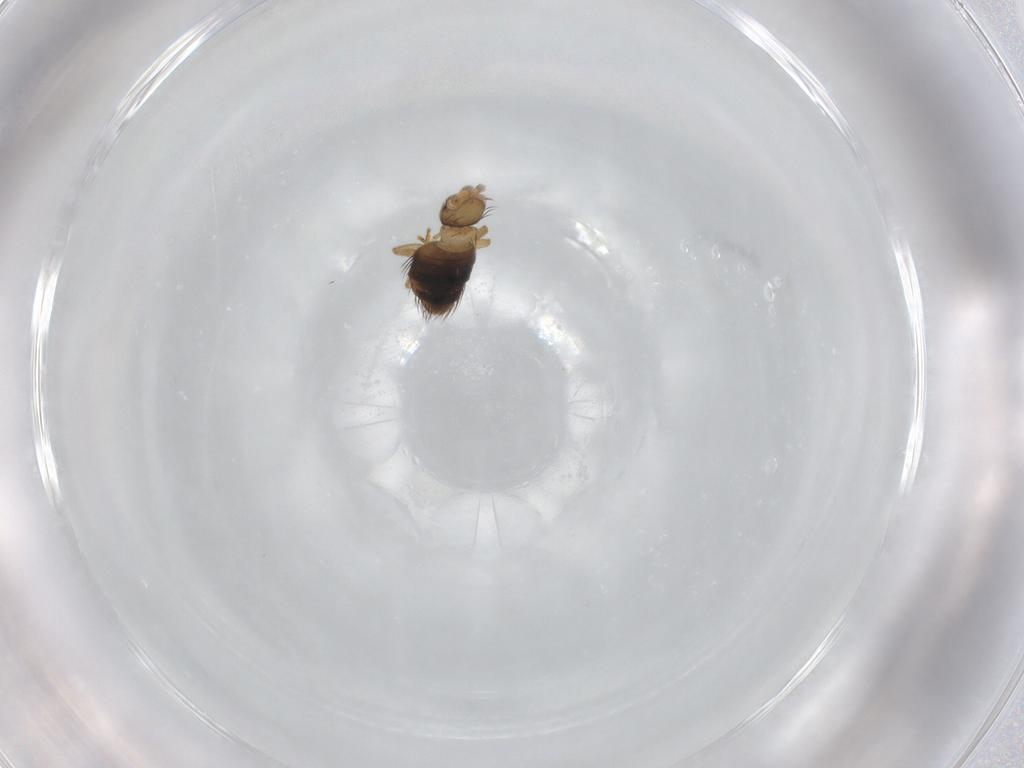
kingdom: Animalia
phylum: Arthropoda
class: Insecta
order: Diptera
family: Phoridae
